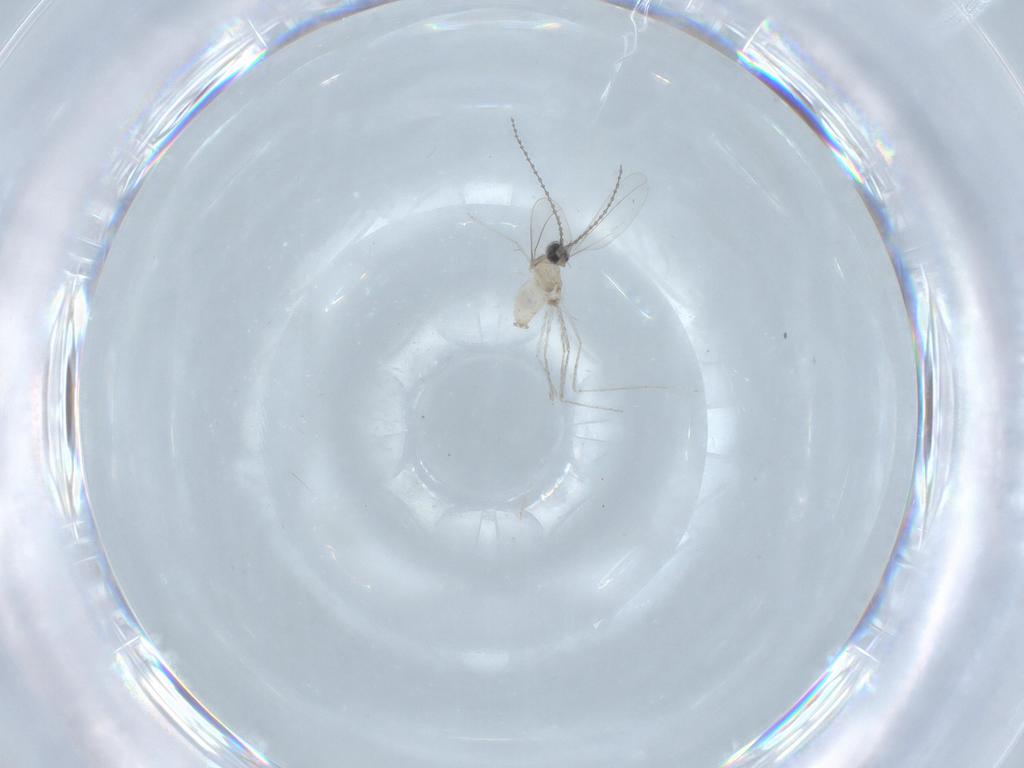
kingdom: Animalia
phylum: Arthropoda
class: Insecta
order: Diptera
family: Cecidomyiidae
